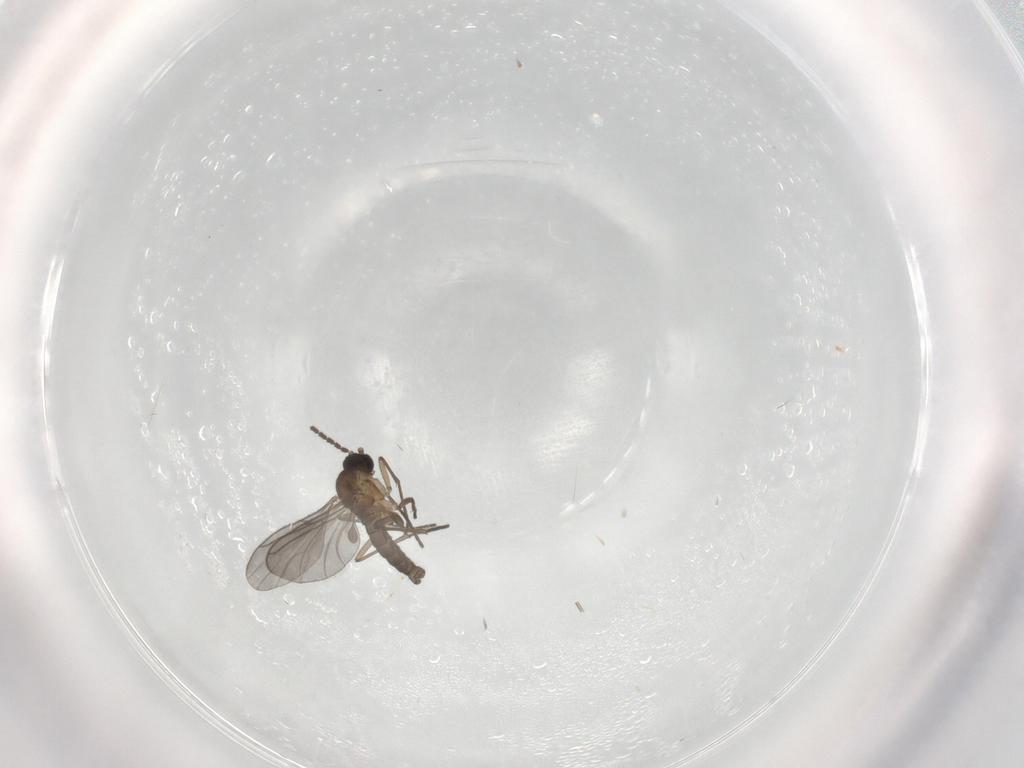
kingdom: Animalia
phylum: Arthropoda
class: Insecta
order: Diptera
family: Sciaridae
